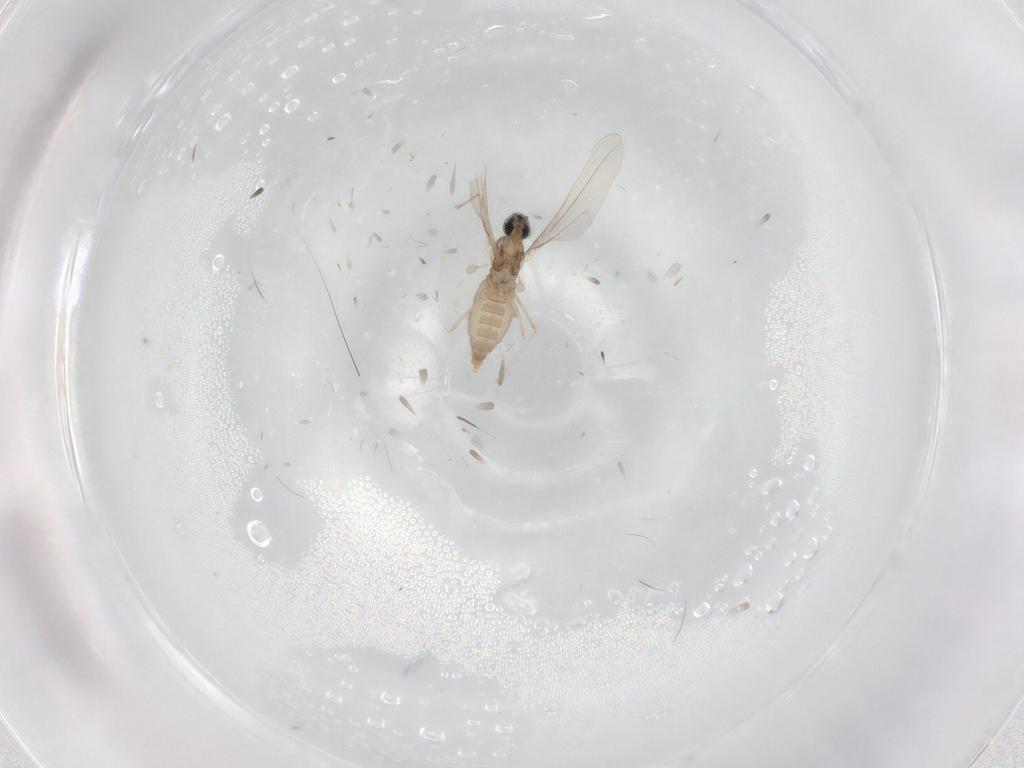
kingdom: Animalia
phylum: Arthropoda
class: Insecta
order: Diptera
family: Cecidomyiidae
